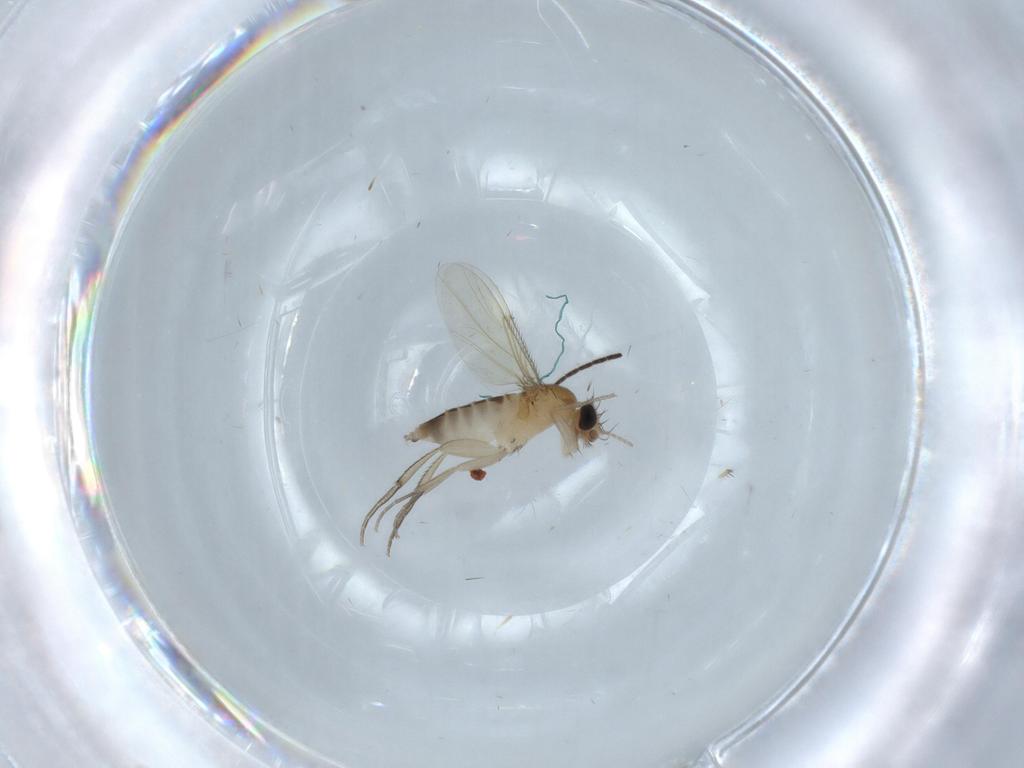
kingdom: Animalia
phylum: Arthropoda
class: Insecta
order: Diptera
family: Phoridae
